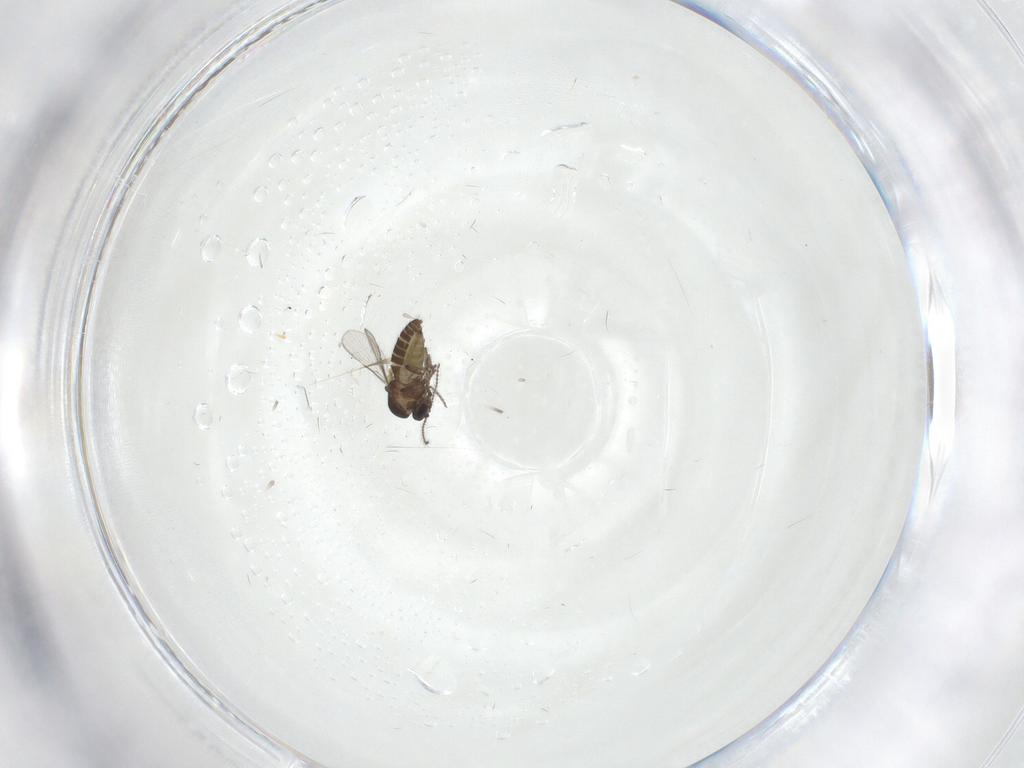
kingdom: Animalia
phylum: Arthropoda
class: Insecta
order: Diptera
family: Ceratopogonidae
